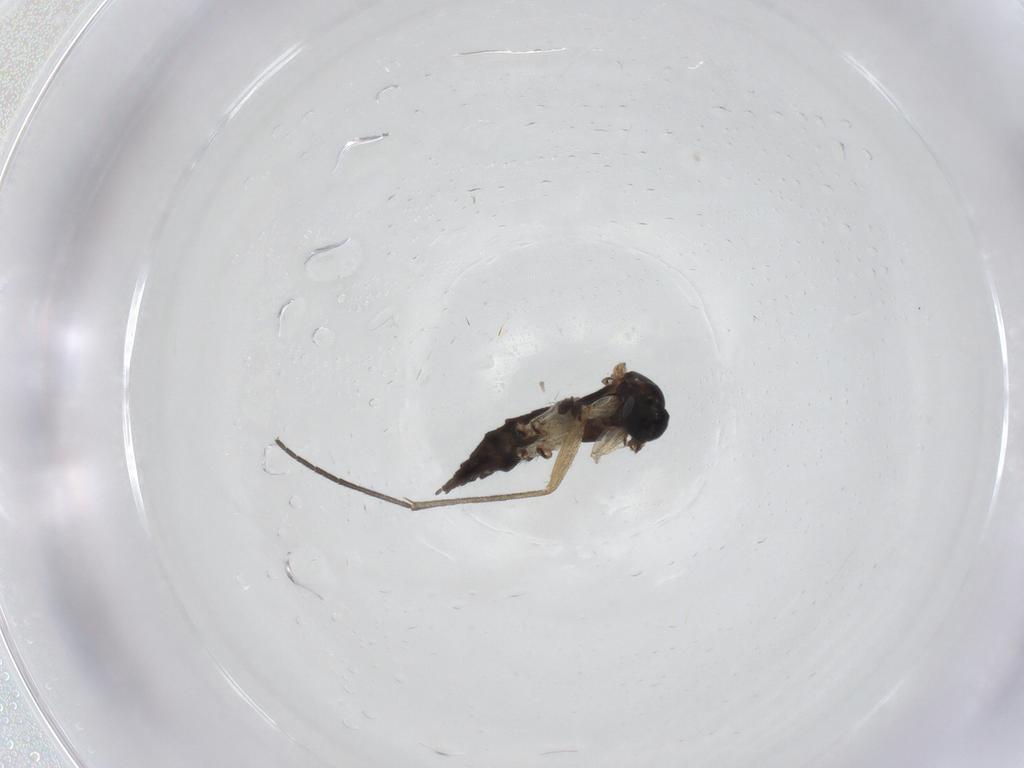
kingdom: Animalia
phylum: Arthropoda
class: Insecta
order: Diptera
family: Sciaridae
